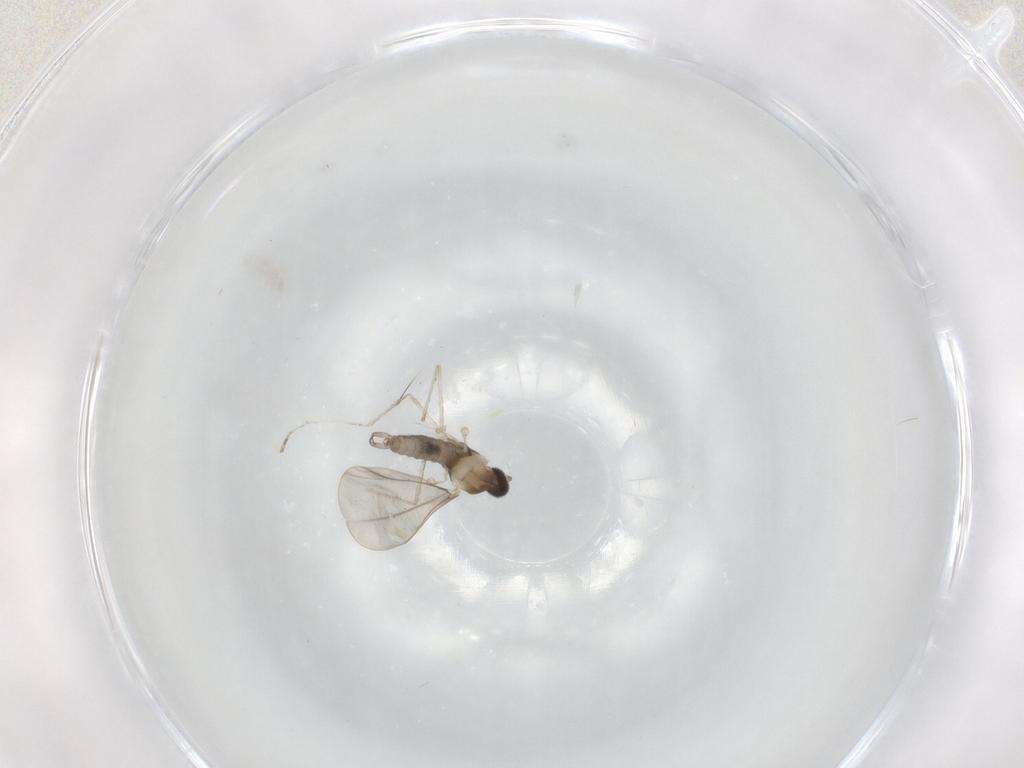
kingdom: Animalia
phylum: Arthropoda
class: Insecta
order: Diptera
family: Cecidomyiidae
